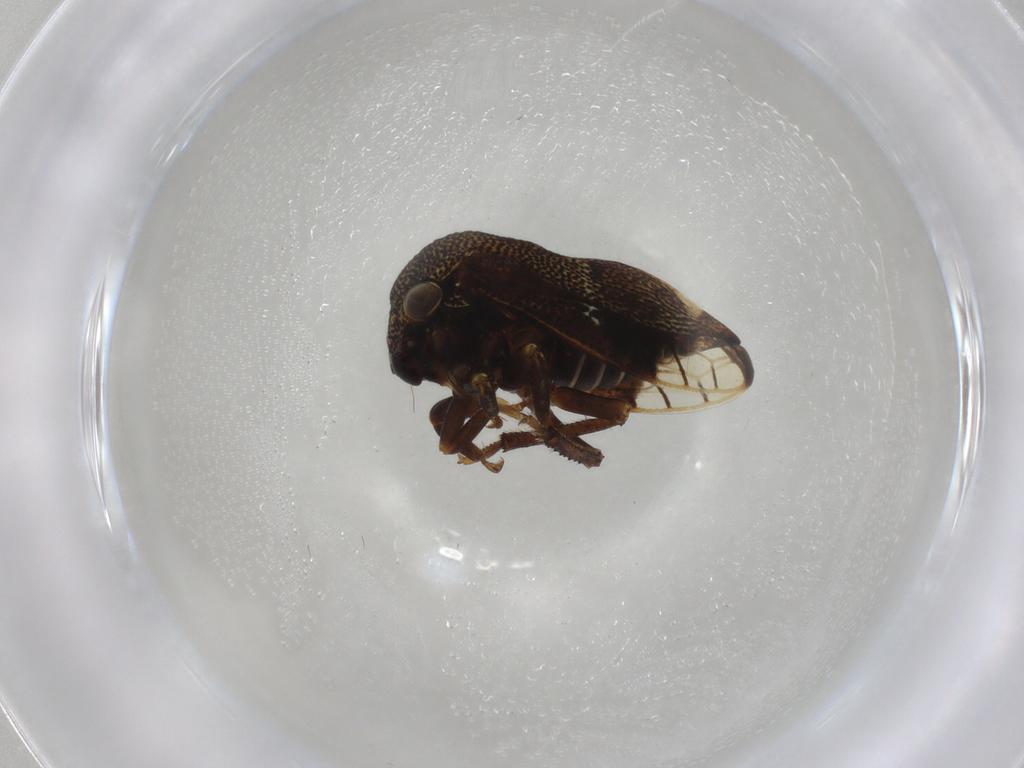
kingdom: Animalia
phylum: Arthropoda
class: Insecta
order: Hemiptera
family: Membracidae
